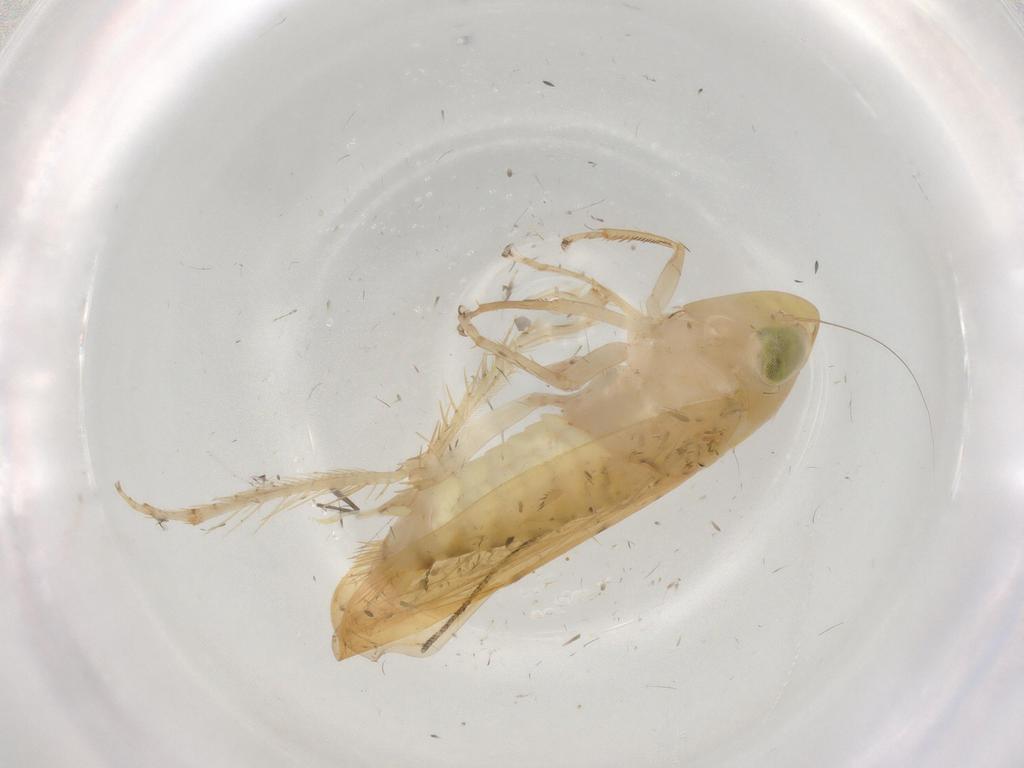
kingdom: Animalia
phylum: Arthropoda
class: Insecta
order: Hemiptera
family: Cicadellidae
